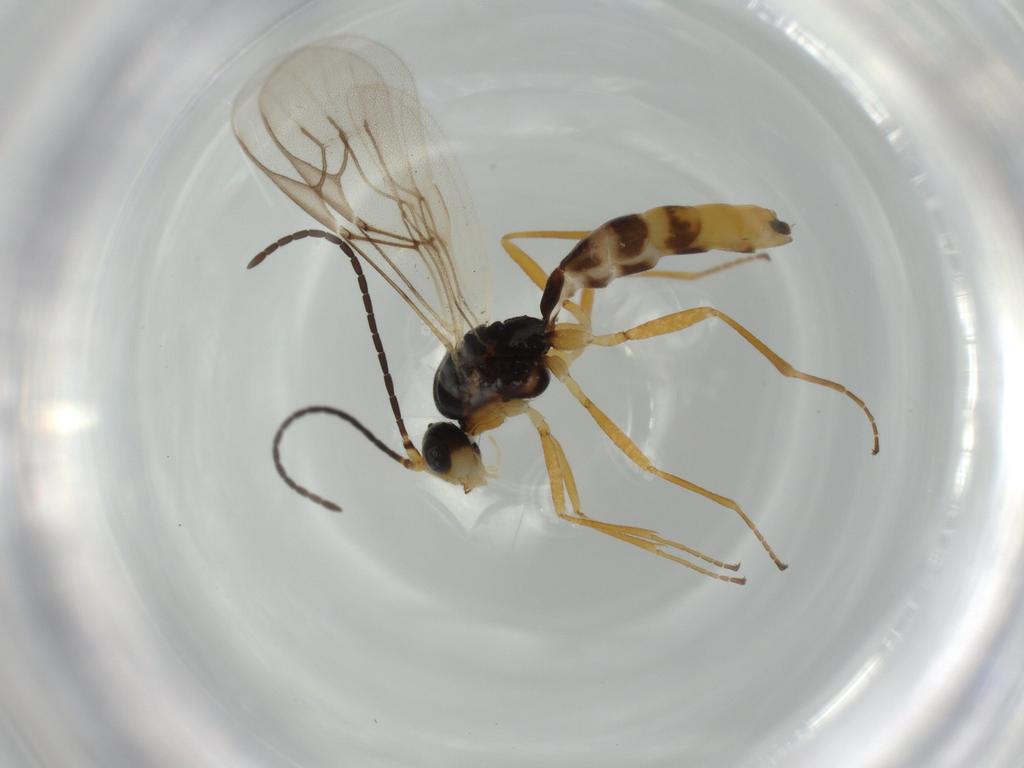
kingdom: Animalia
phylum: Arthropoda
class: Insecta
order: Hymenoptera
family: Braconidae
